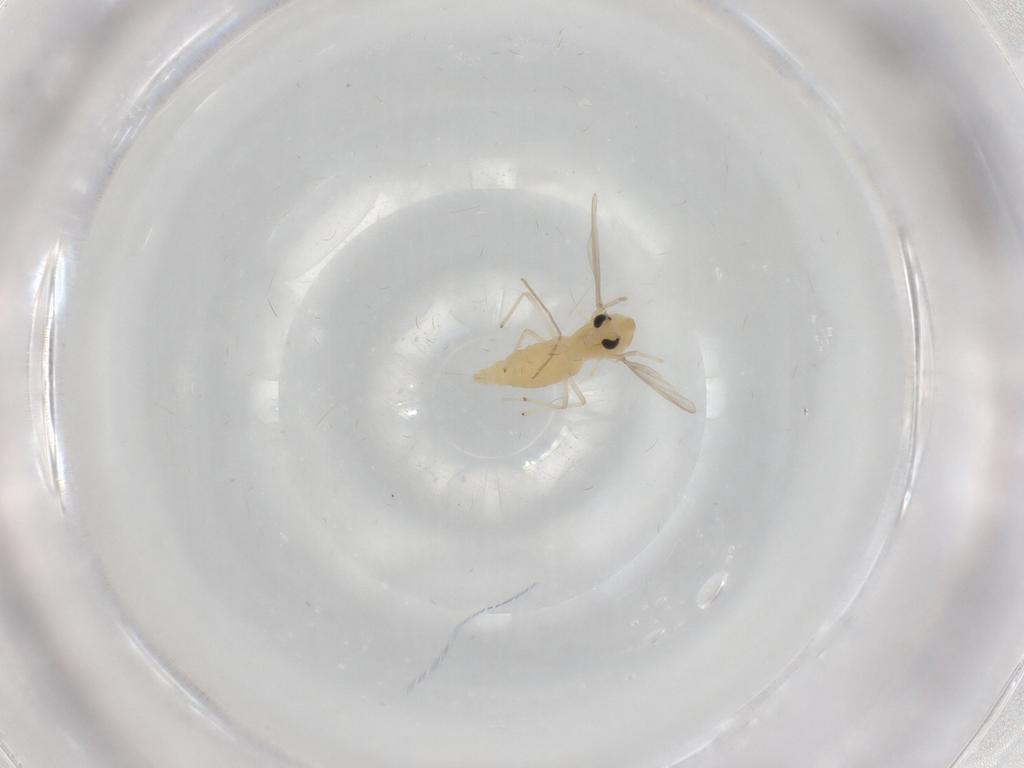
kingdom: Animalia
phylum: Arthropoda
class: Insecta
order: Diptera
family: Chironomidae
